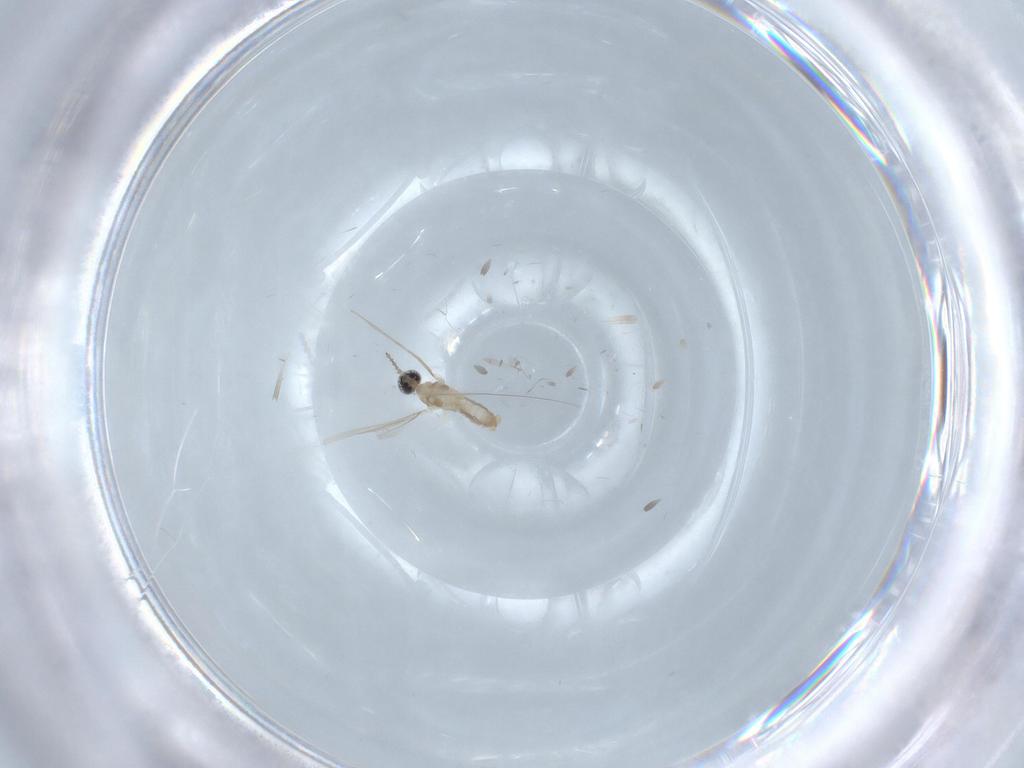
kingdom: Animalia
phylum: Arthropoda
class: Insecta
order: Diptera
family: Cecidomyiidae
